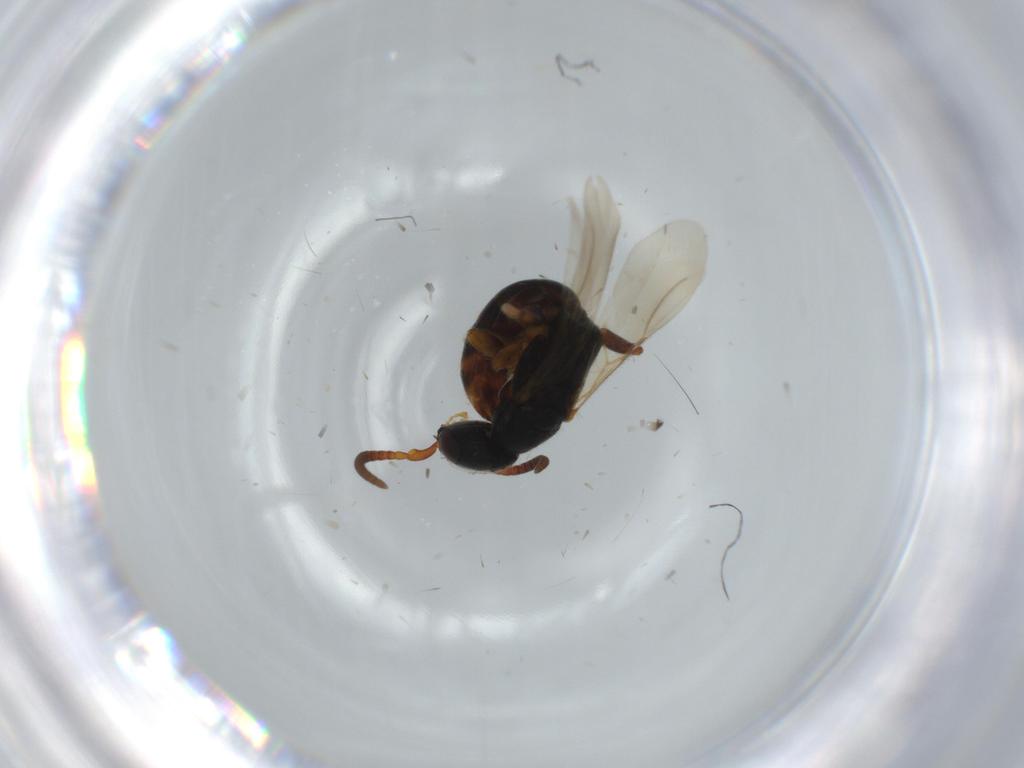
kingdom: Animalia
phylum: Arthropoda
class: Insecta
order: Hymenoptera
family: Bethylidae
